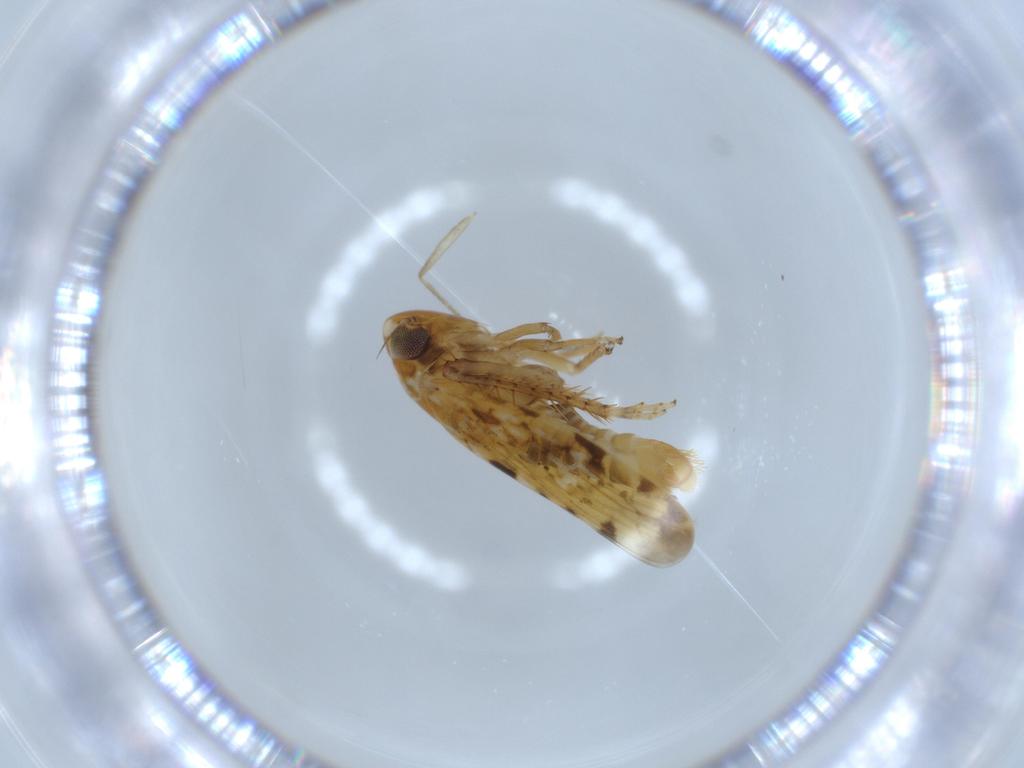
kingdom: Animalia
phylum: Arthropoda
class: Insecta
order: Hemiptera
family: Cicadellidae
